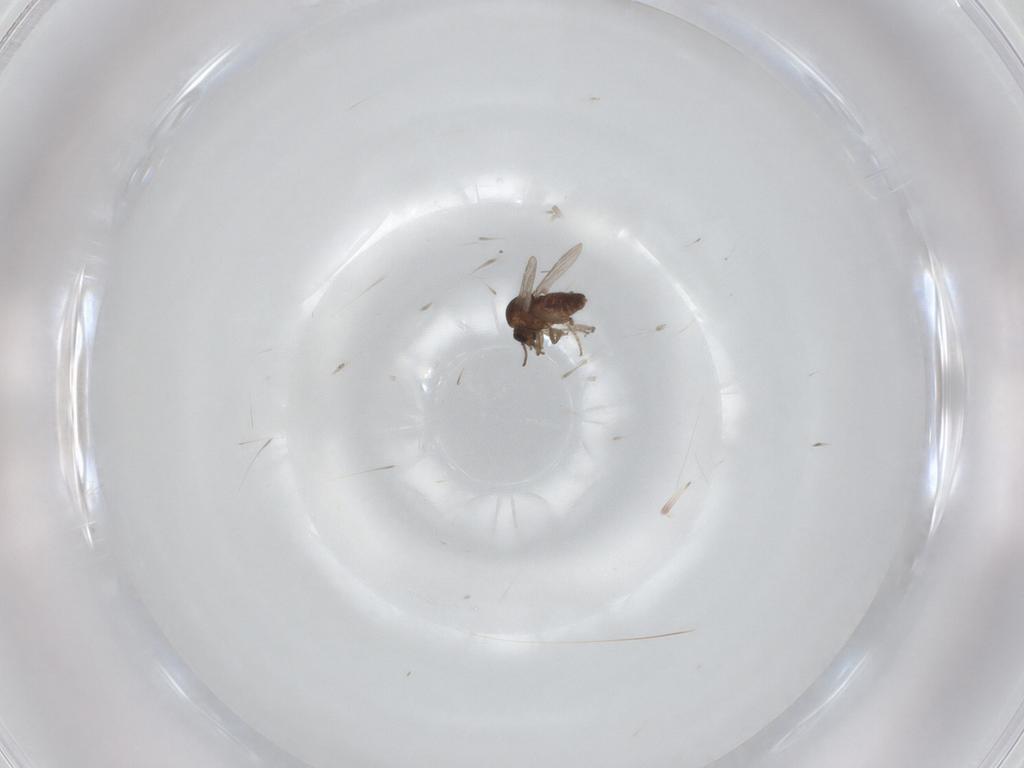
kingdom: Animalia
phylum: Arthropoda
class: Insecta
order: Diptera
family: Ceratopogonidae
